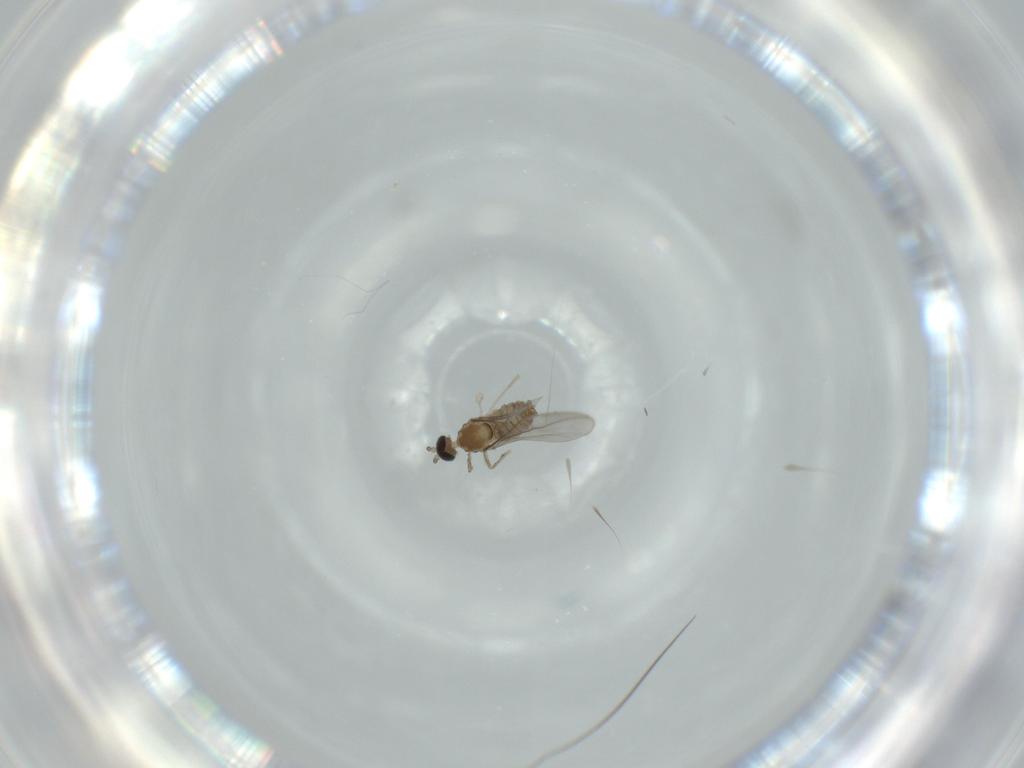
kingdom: Animalia
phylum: Arthropoda
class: Insecta
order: Diptera
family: Cecidomyiidae
